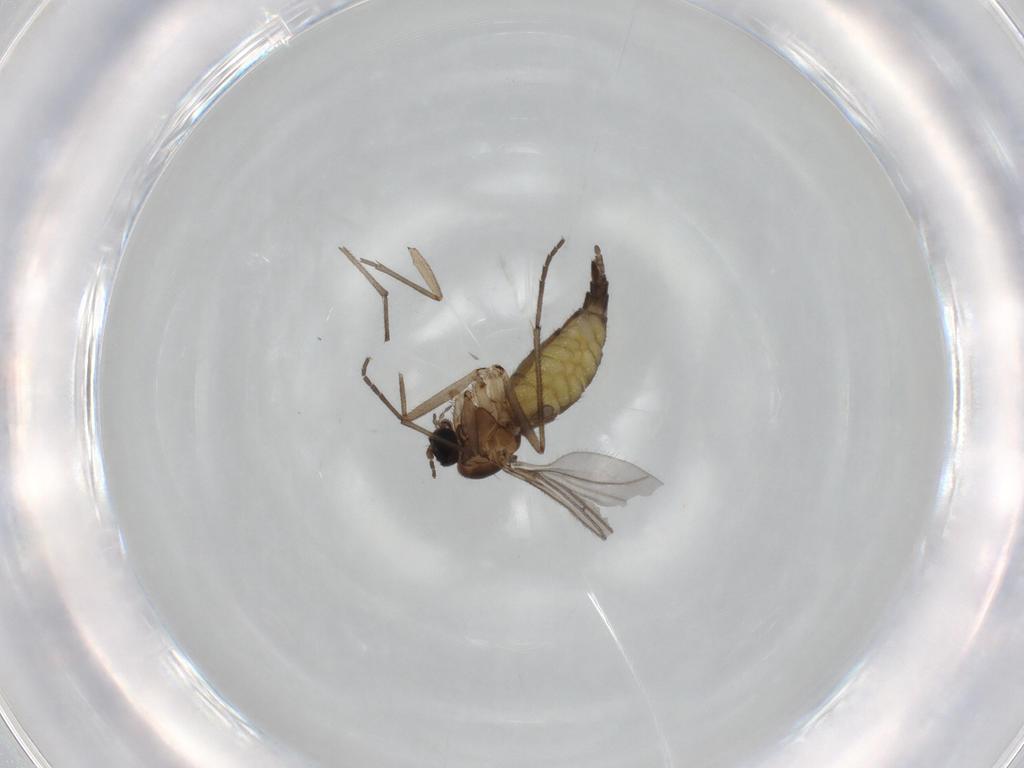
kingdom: Animalia
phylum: Arthropoda
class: Insecta
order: Diptera
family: Sciaridae
